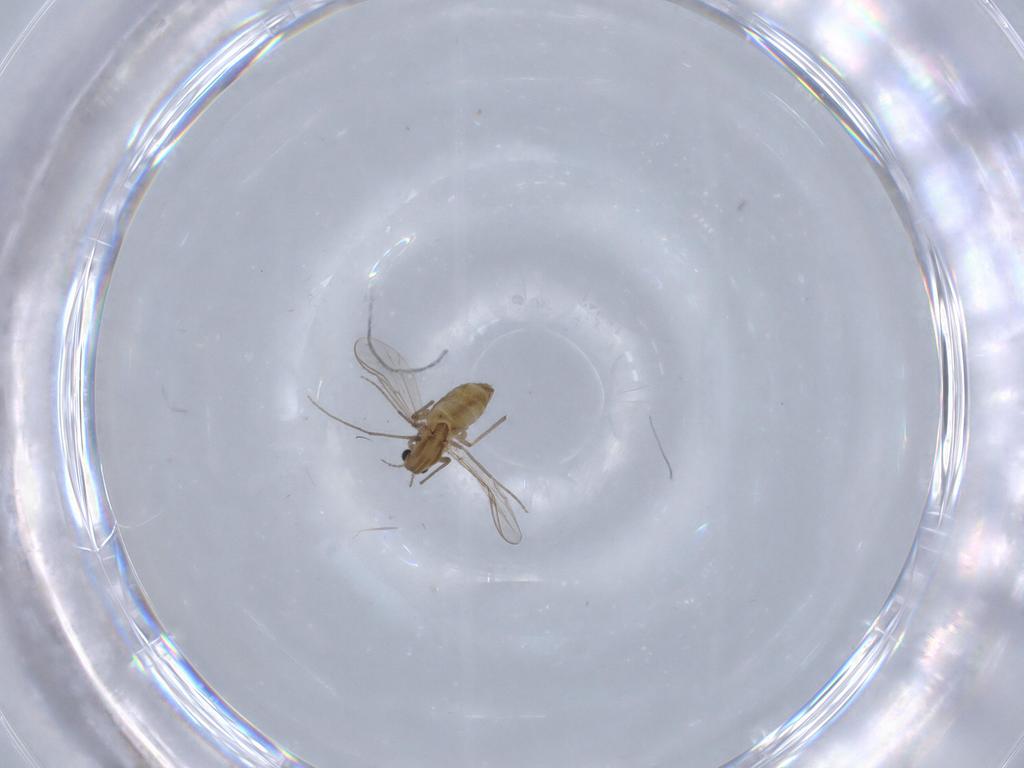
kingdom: Animalia
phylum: Arthropoda
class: Insecta
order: Diptera
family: Chironomidae
